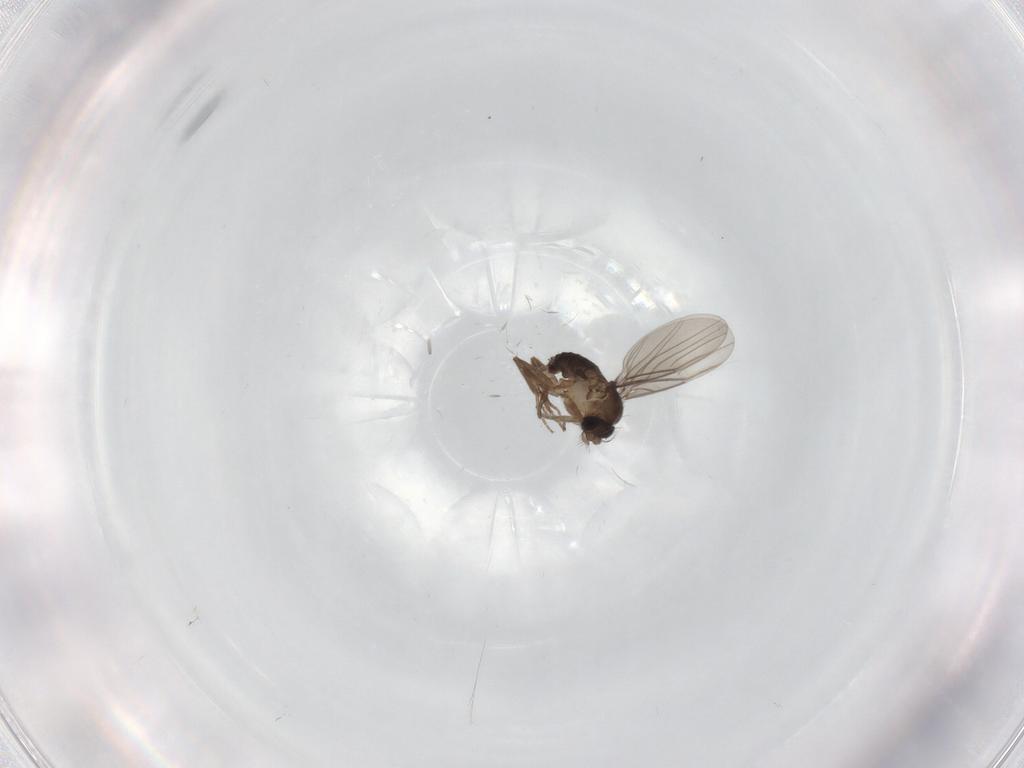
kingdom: Animalia
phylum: Arthropoda
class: Insecta
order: Diptera
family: Phoridae
